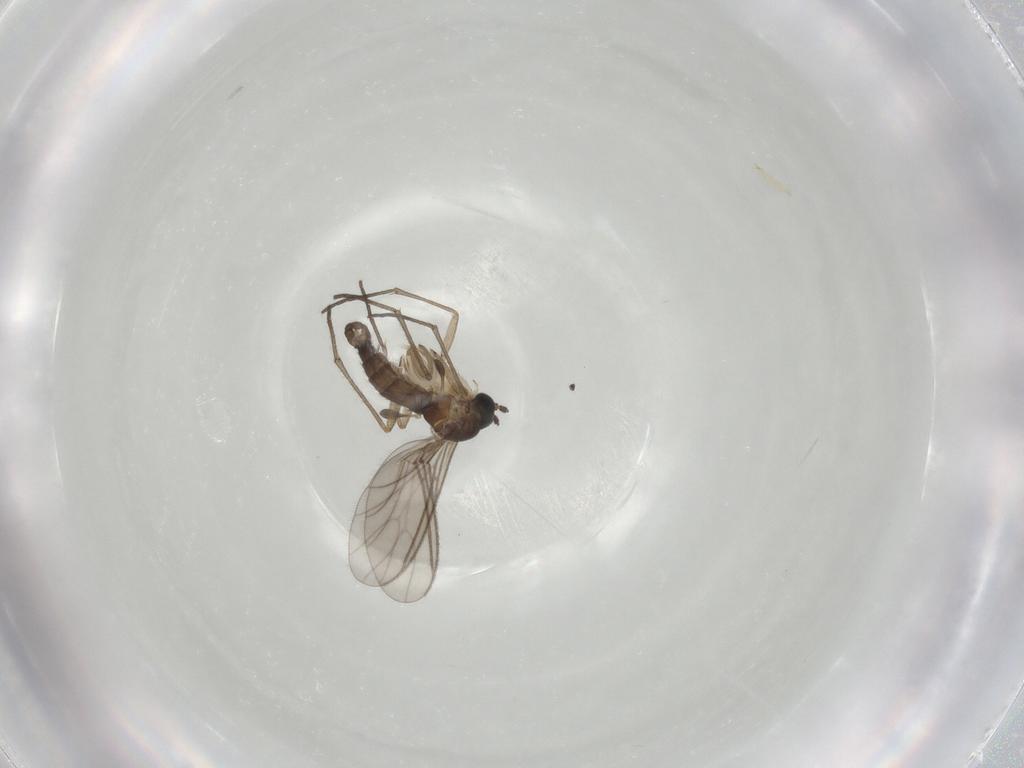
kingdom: Animalia
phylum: Arthropoda
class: Insecta
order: Diptera
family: Sciaridae
